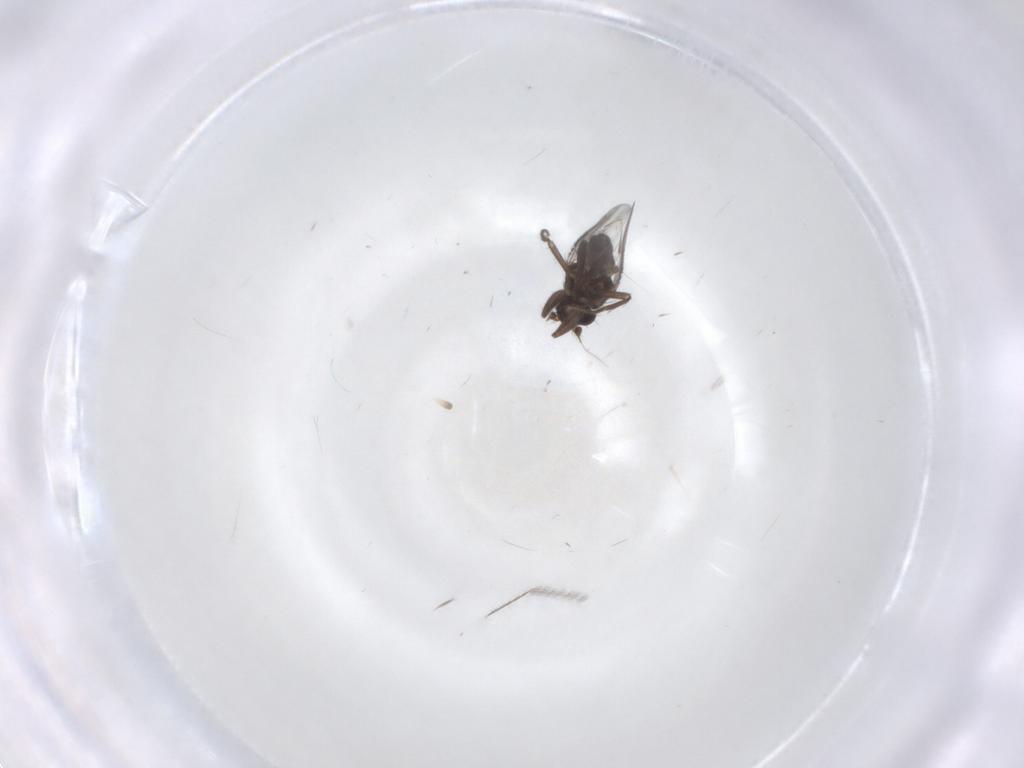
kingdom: Animalia
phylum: Arthropoda
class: Insecta
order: Diptera
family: Sphaeroceridae
